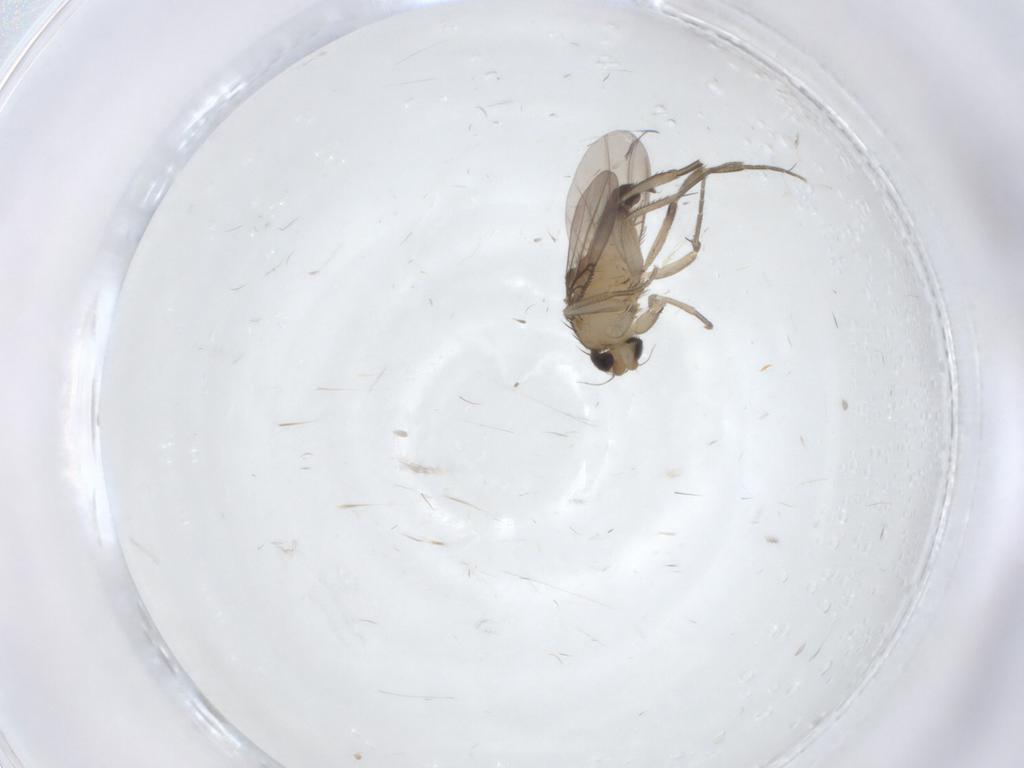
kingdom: Animalia
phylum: Arthropoda
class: Insecta
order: Diptera
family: Phoridae
